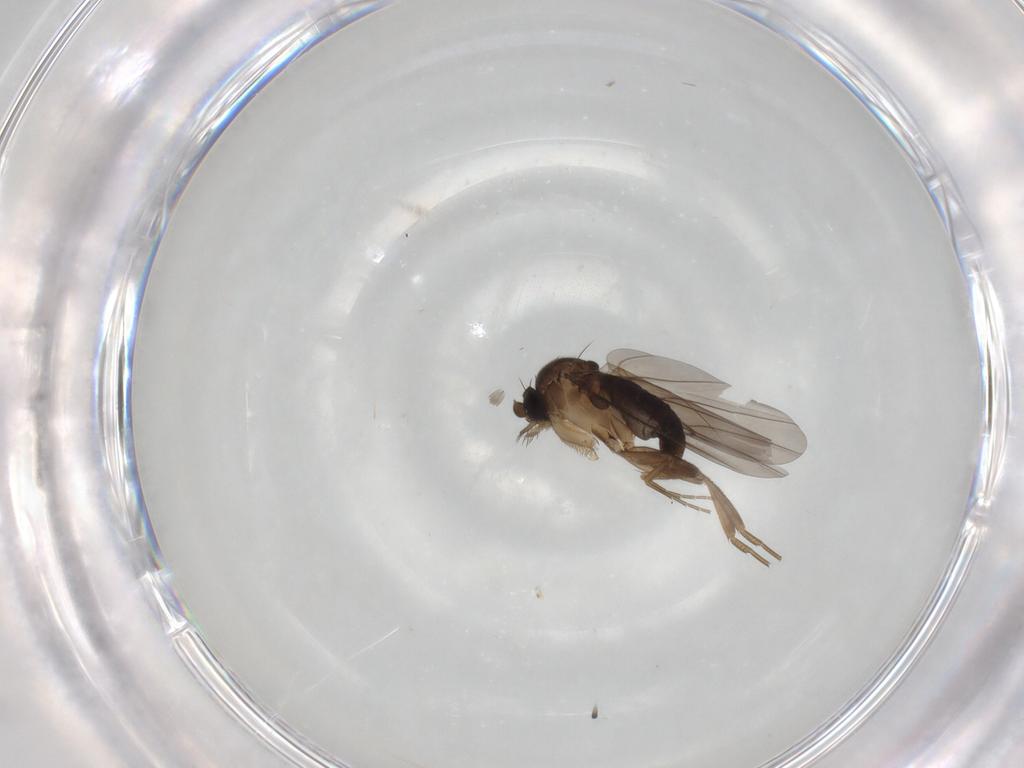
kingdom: Animalia
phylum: Arthropoda
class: Insecta
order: Diptera
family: Phoridae
